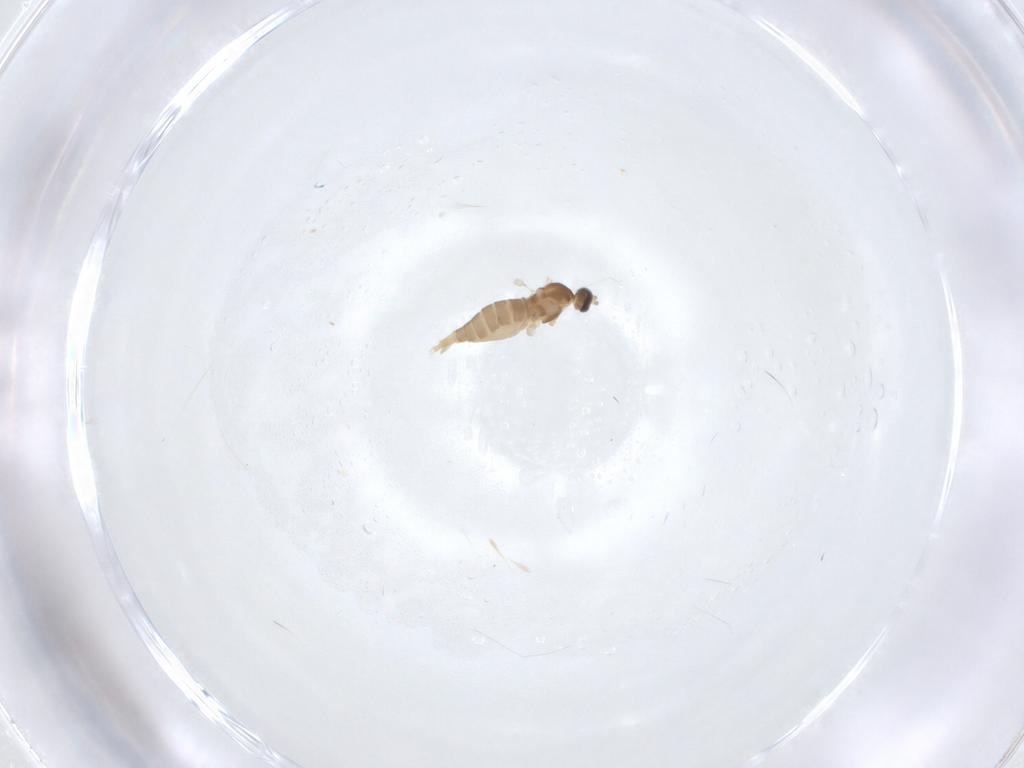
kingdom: Animalia
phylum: Arthropoda
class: Insecta
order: Diptera
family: Cecidomyiidae
